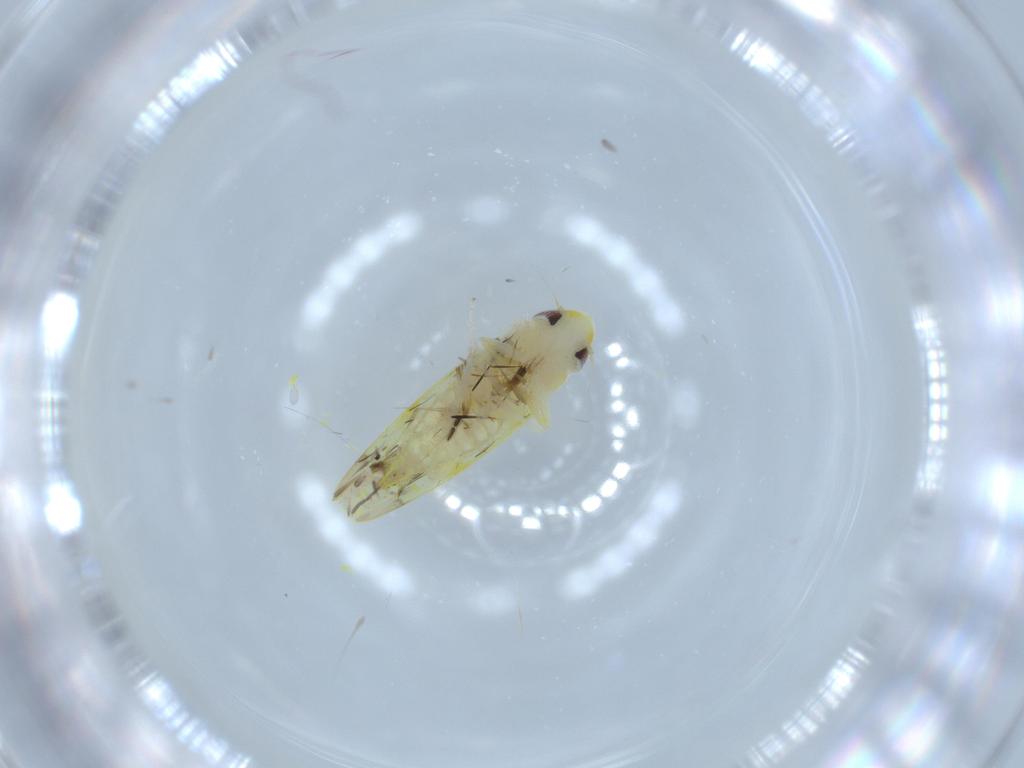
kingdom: Animalia
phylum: Arthropoda
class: Insecta
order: Hemiptera
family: Cicadellidae
